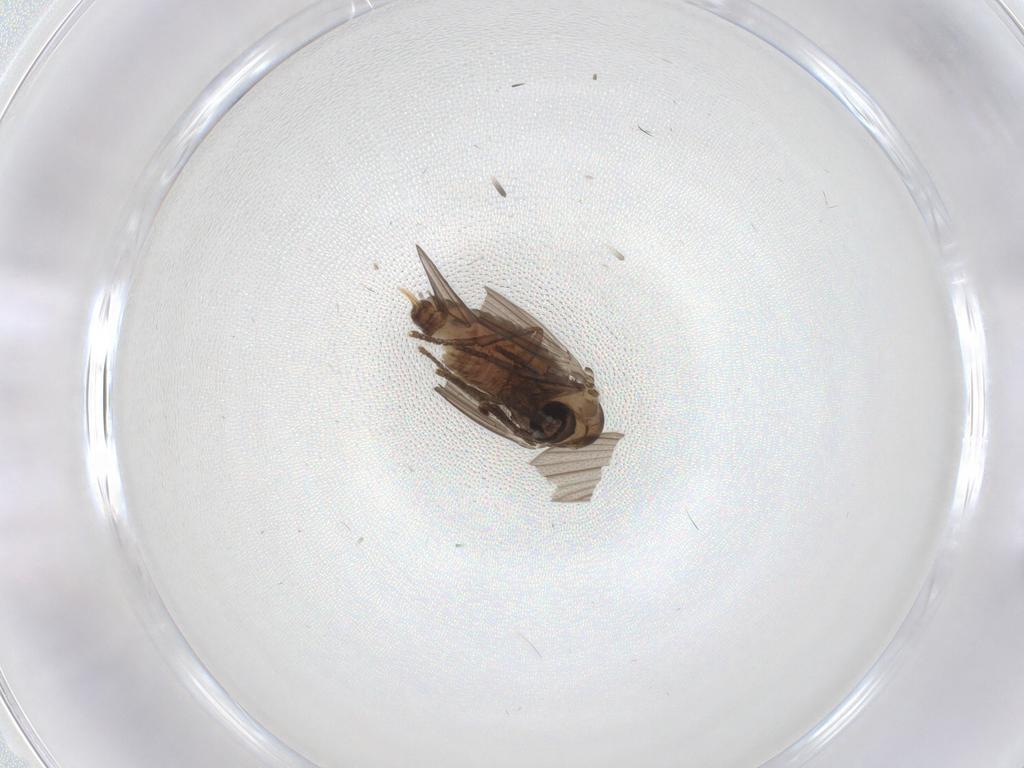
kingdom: Animalia
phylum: Arthropoda
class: Insecta
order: Diptera
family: Psychodidae
